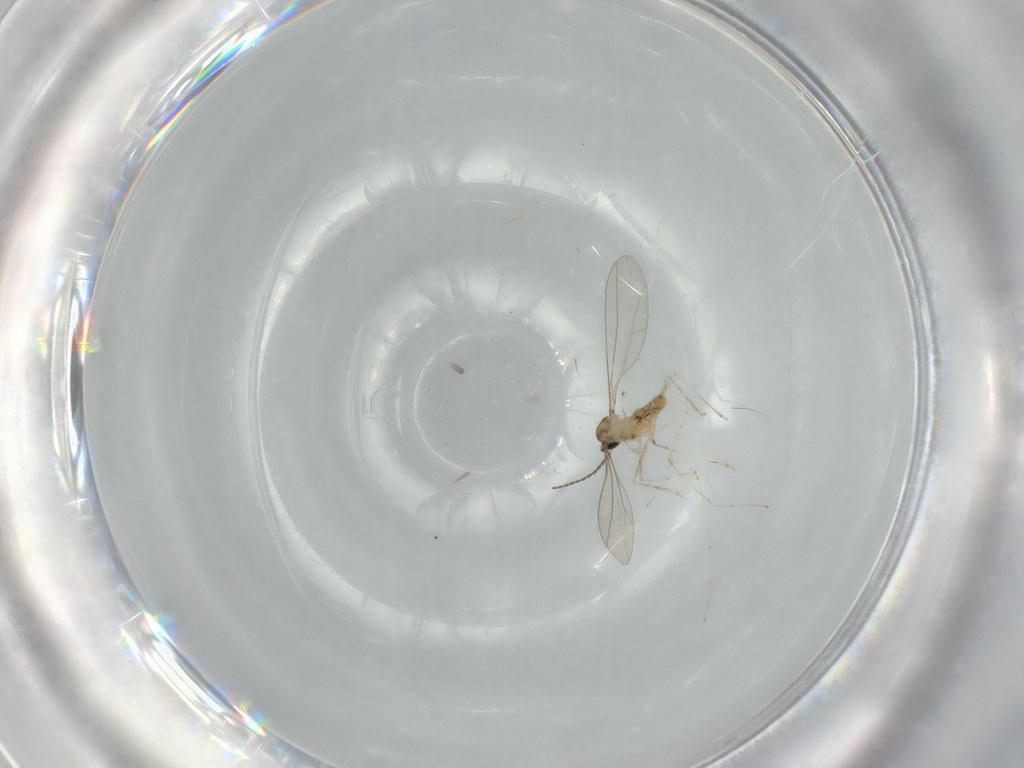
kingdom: Animalia
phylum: Arthropoda
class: Insecta
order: Diptera
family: Cecidomyiidae
